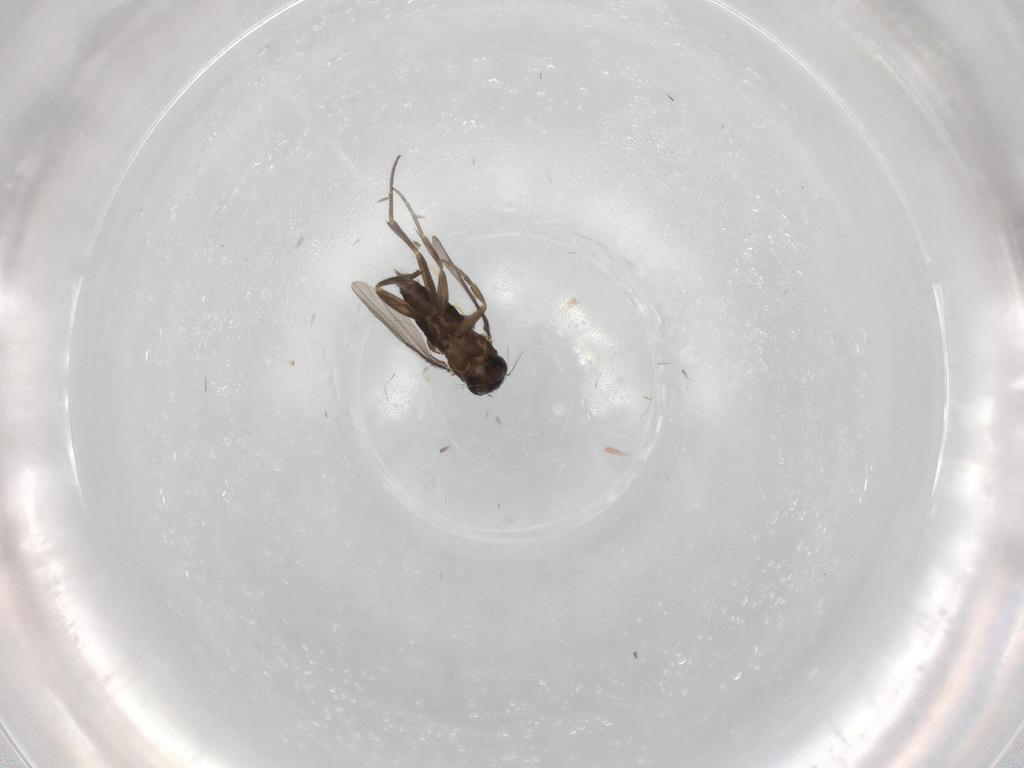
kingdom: Animalia
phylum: Arthropoda
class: Insecta
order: Diptera
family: Phoridae
